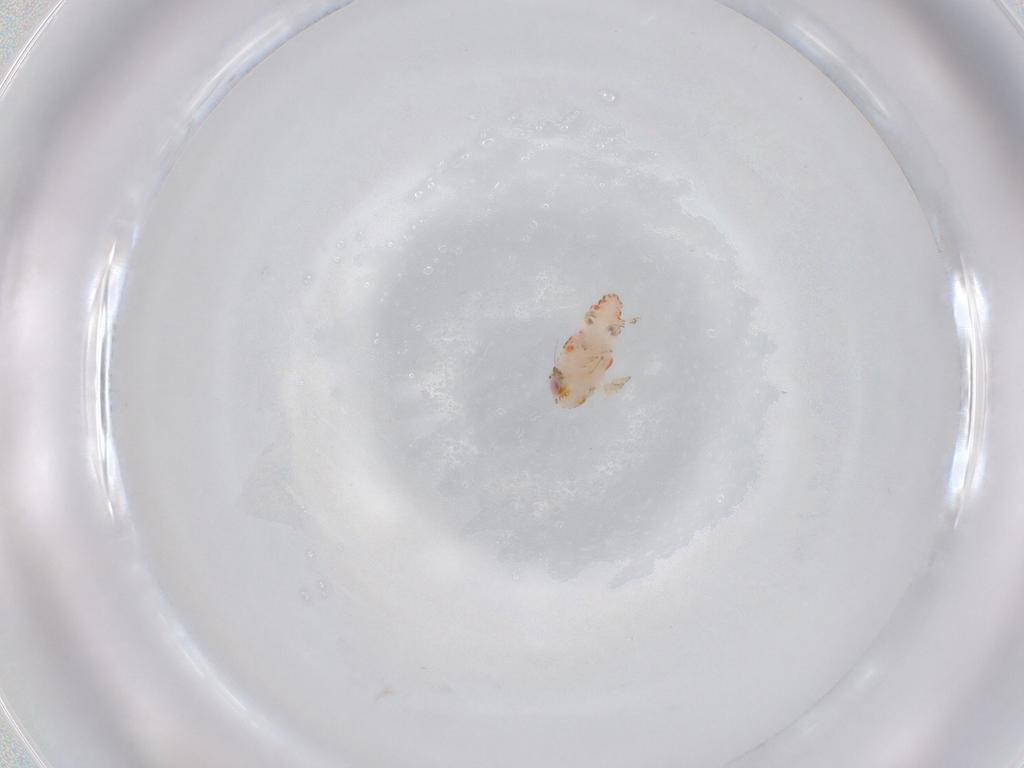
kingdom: Animalia
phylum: Arthropoda
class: Insecta
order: Hemiptera
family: Nogodinidae
